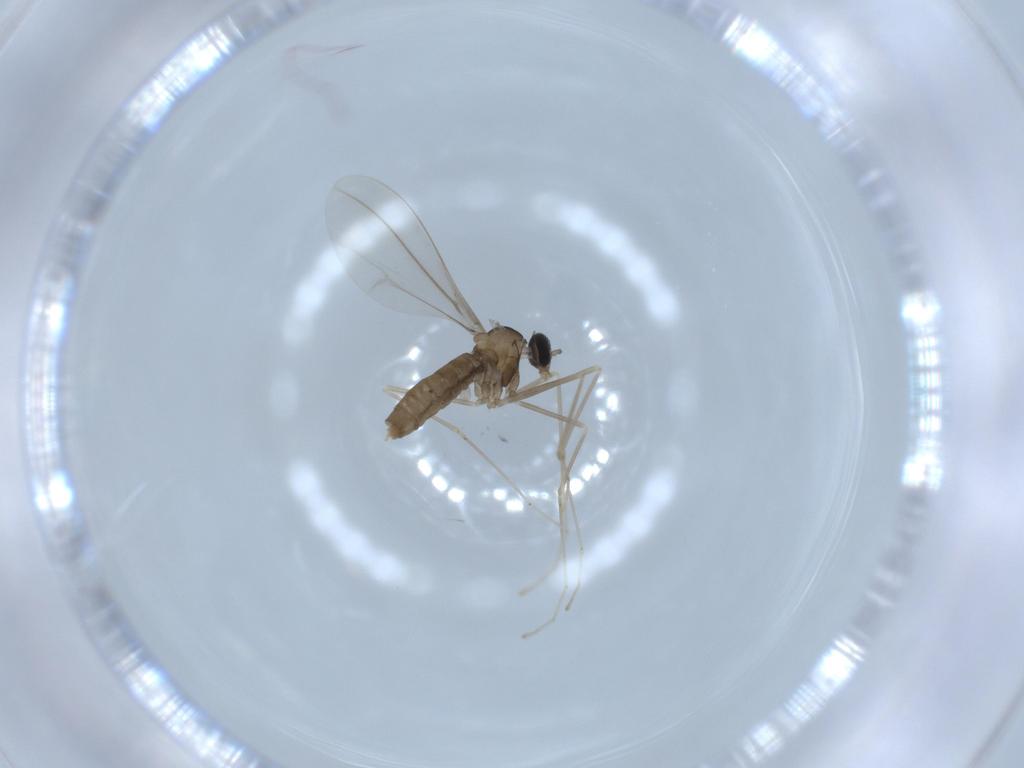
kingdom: Animalia
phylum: Arthropoda
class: Insecta
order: Diptera
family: Cecidomyiidae
